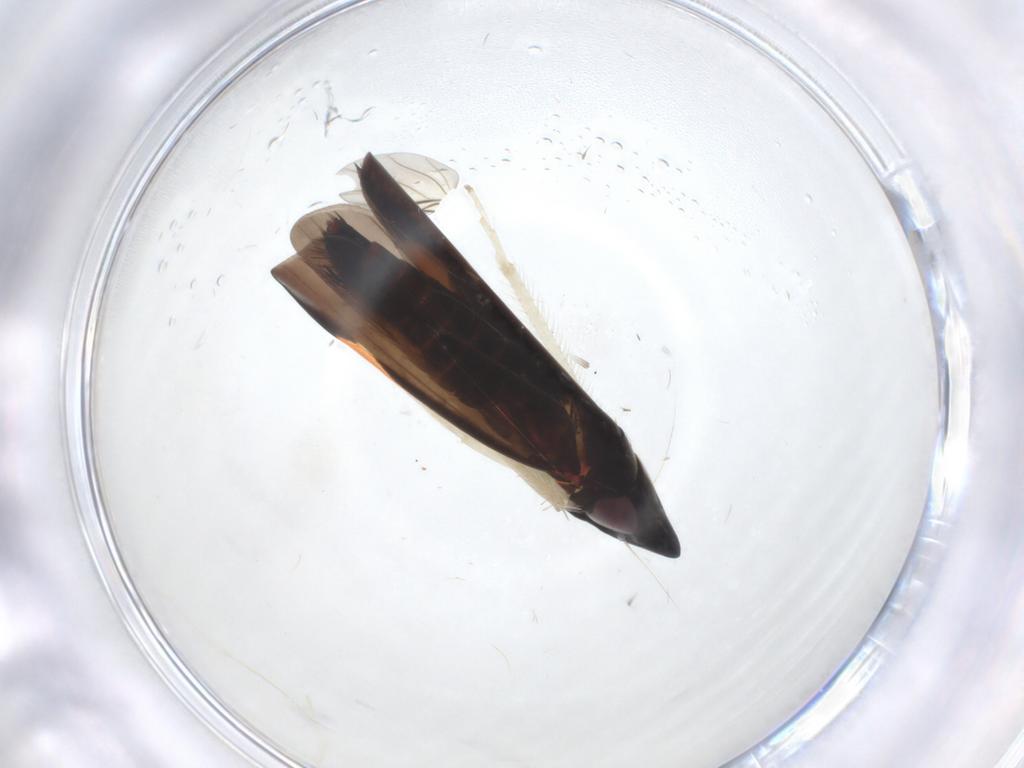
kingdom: Animalia
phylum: Arthropoda
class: Insecta
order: Hemiptera
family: Cicadellidae
